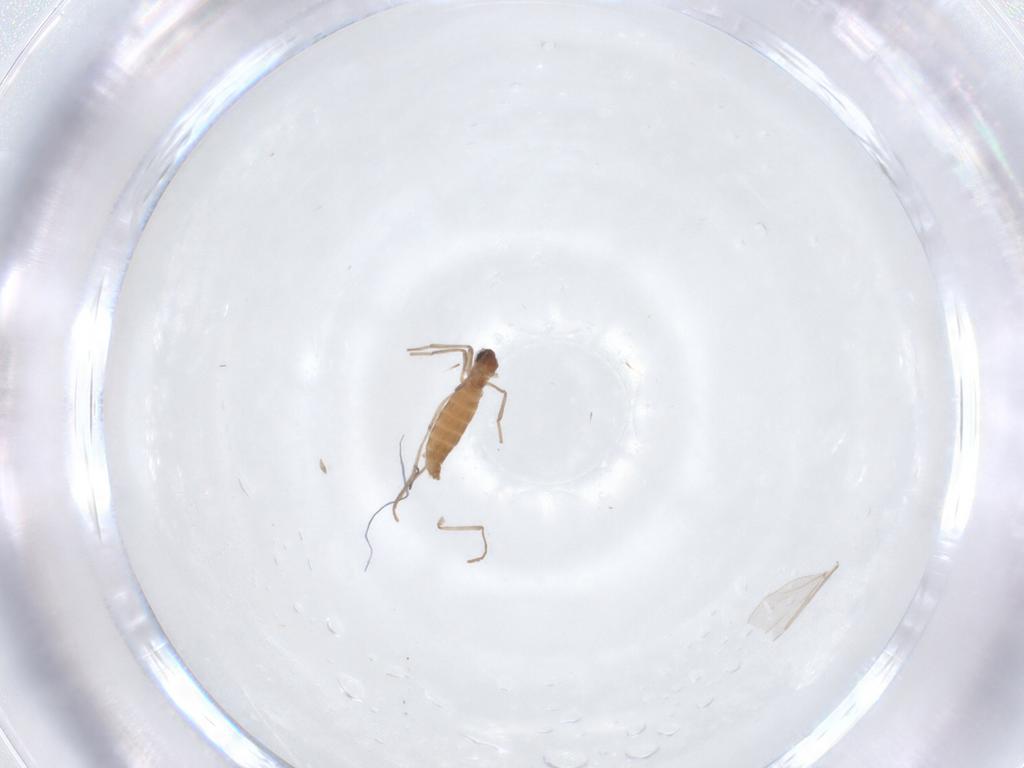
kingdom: Animalia
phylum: Arthropoda
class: Insecta
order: Diptera
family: Cecidomyiidae
